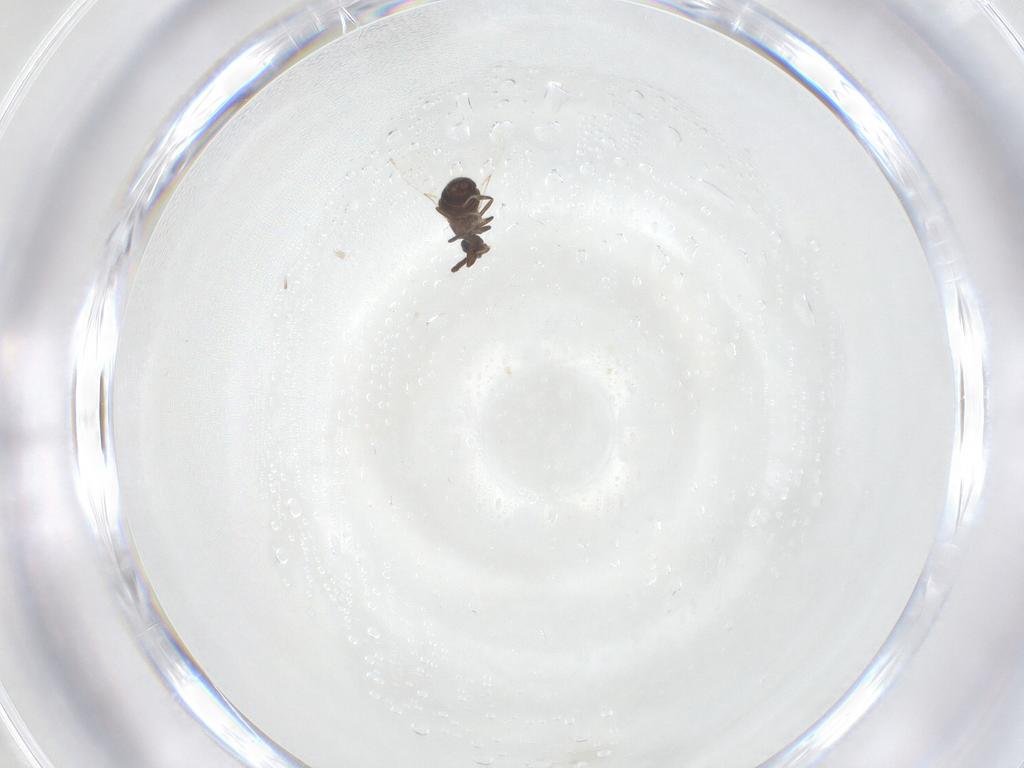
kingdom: Animalia
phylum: Arthropoda
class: Insecta
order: Diptera
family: Scatopsidae
